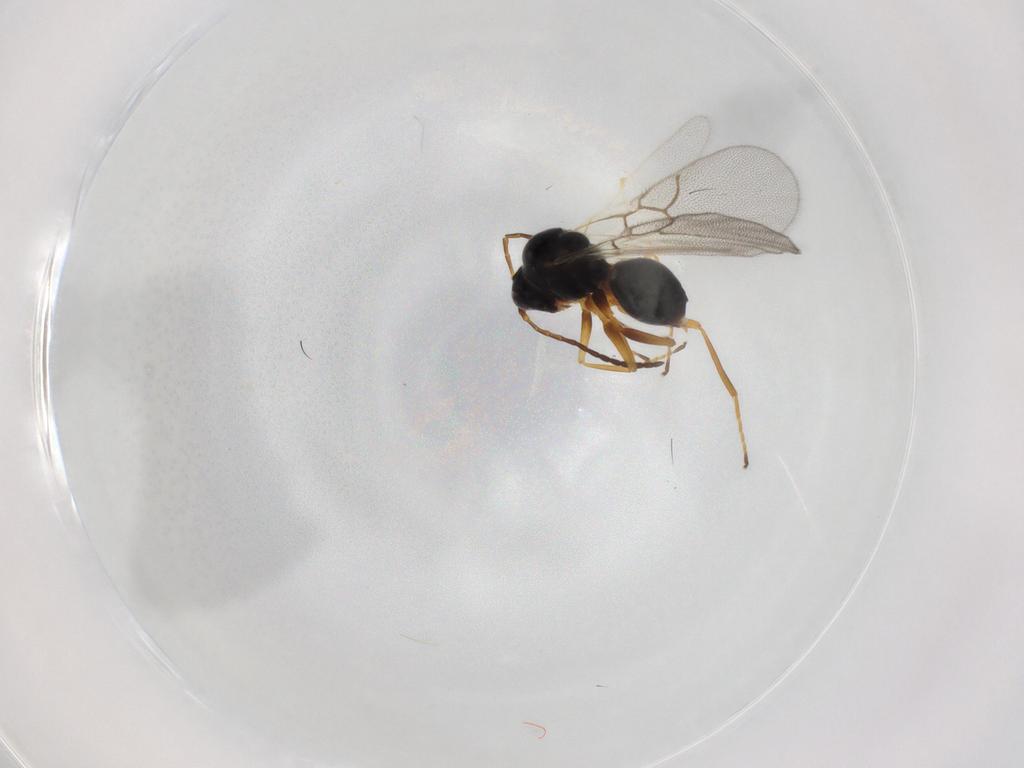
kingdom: Animalia
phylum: Arthropoda
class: Insecta
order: Hymenoptera
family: Figitidae
